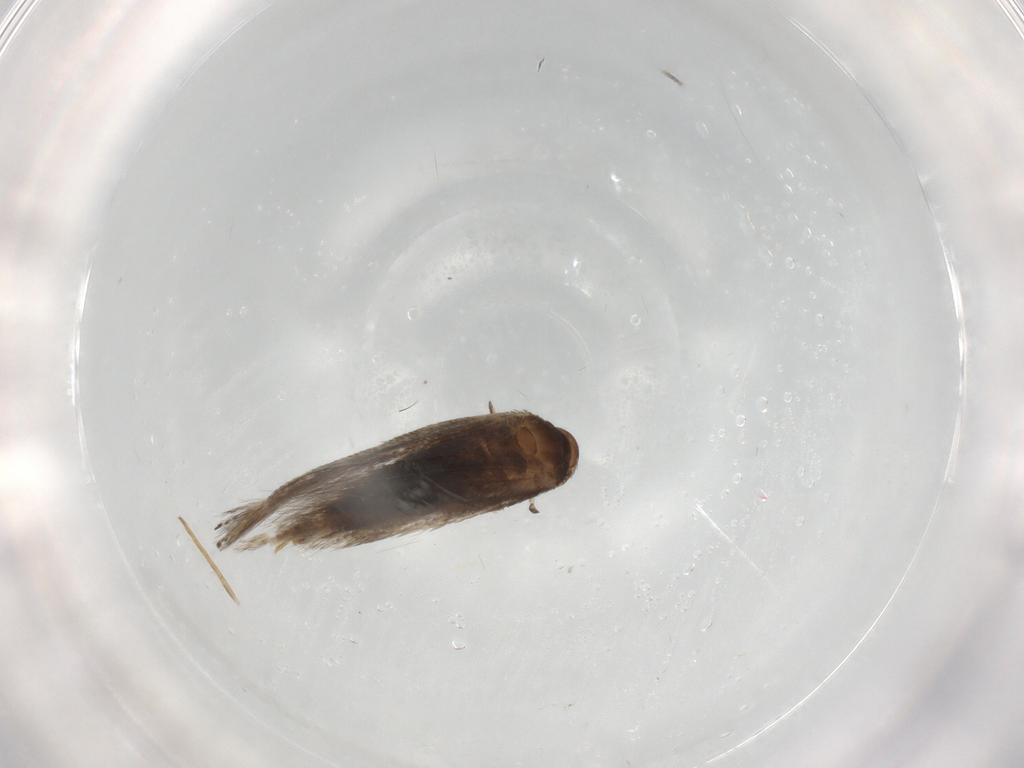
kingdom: Animalia
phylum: Arthropoda
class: Insecta
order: Lepidoptera
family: Elachistidae
